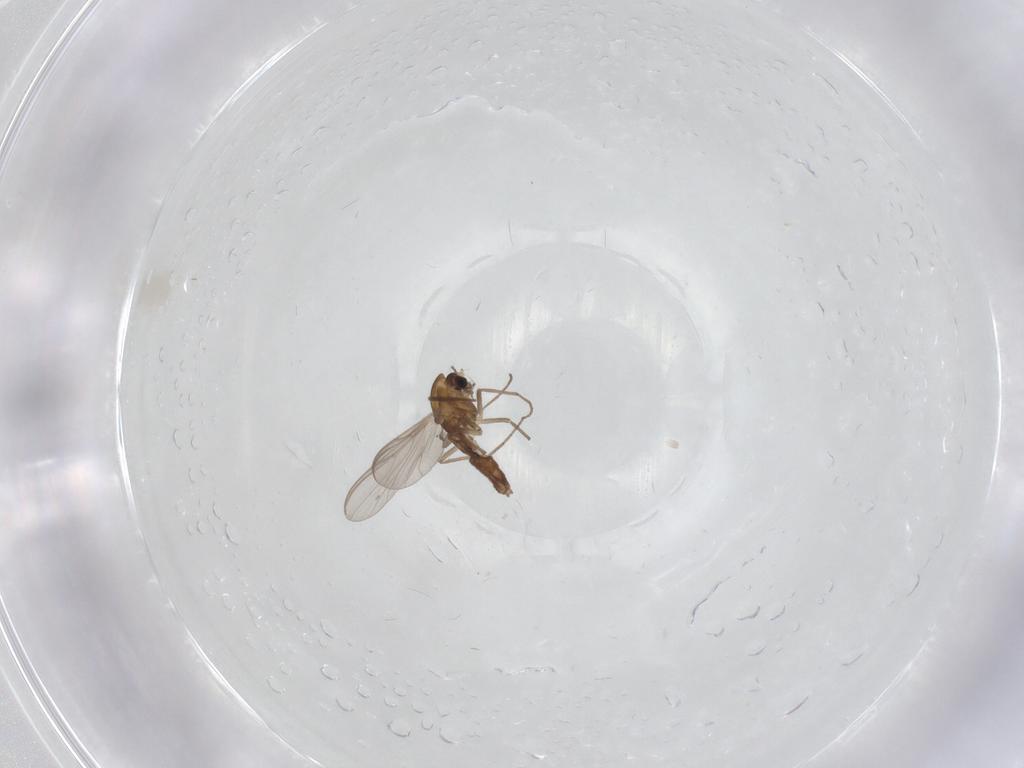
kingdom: Animalia
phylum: Arthropoda
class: Insecta
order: Diptera
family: Chironomidae
